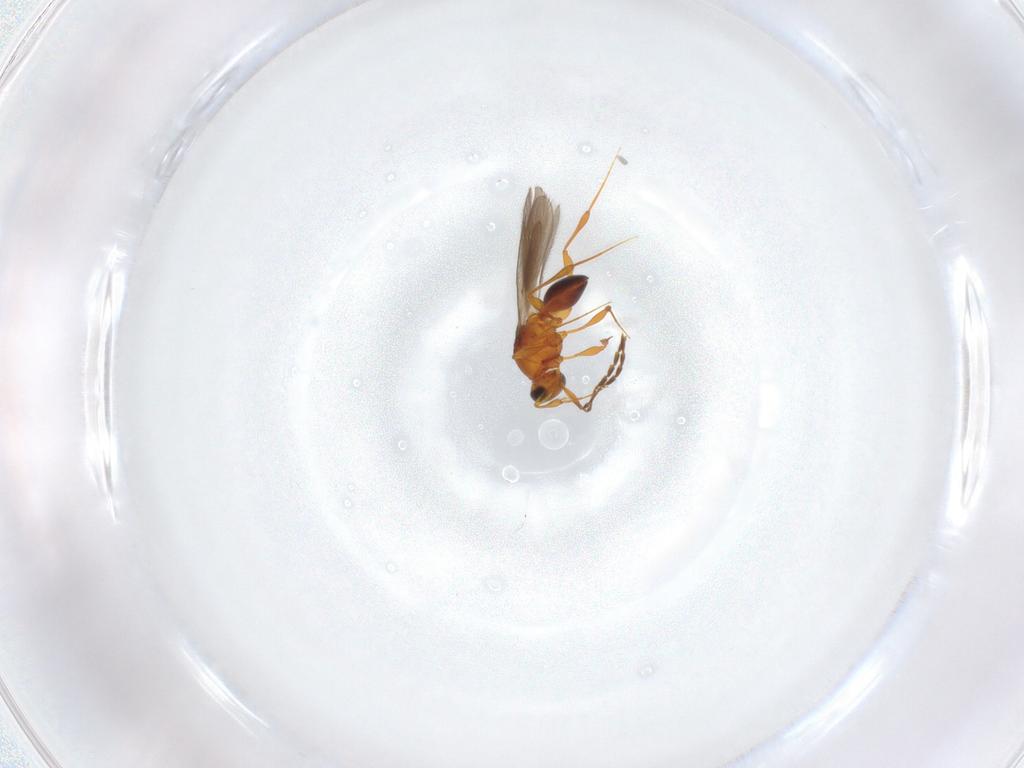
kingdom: Animalia
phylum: Arthropoda
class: Insecta
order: Hymenoptera
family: Platygastridae
